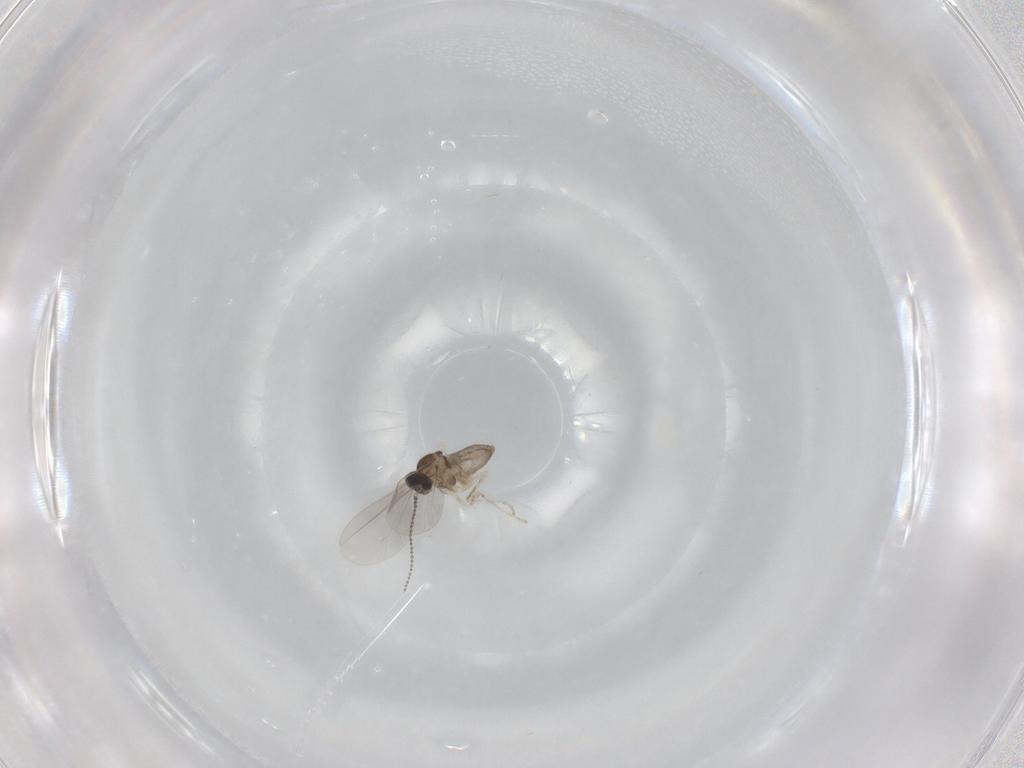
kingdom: Animalia
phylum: Arthropoda
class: Insecta
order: Diptera
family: Cecidomyiidae
